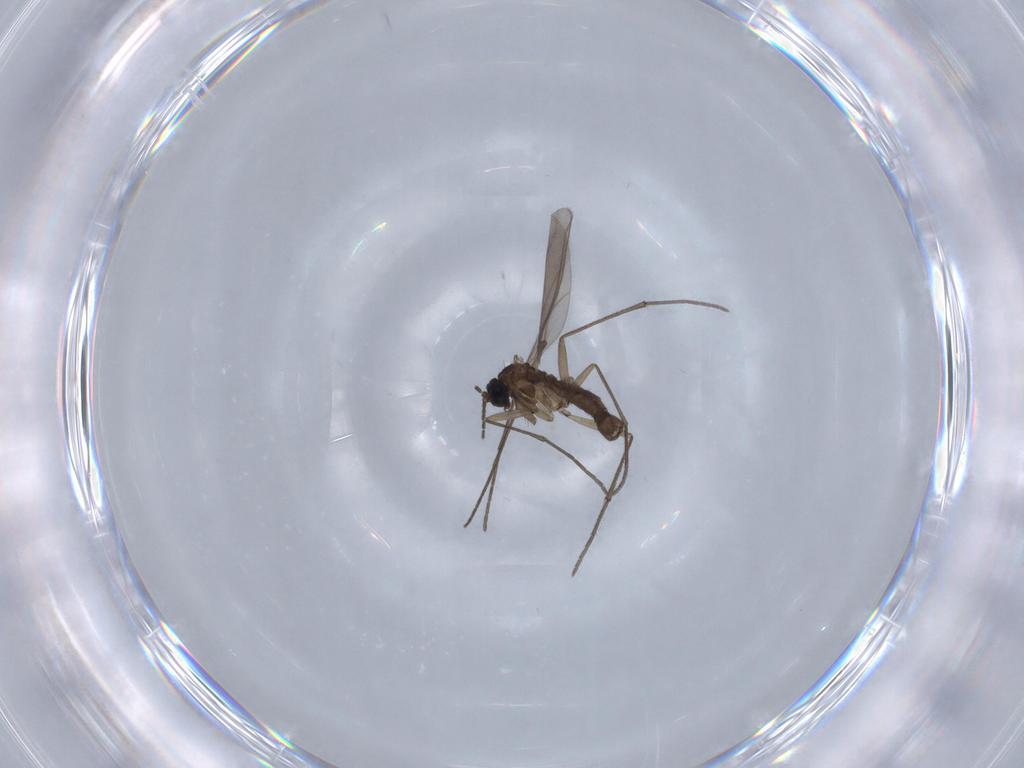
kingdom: Animalia
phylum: Arthropoda
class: Insecta
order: Diptera
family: Sciaridae
